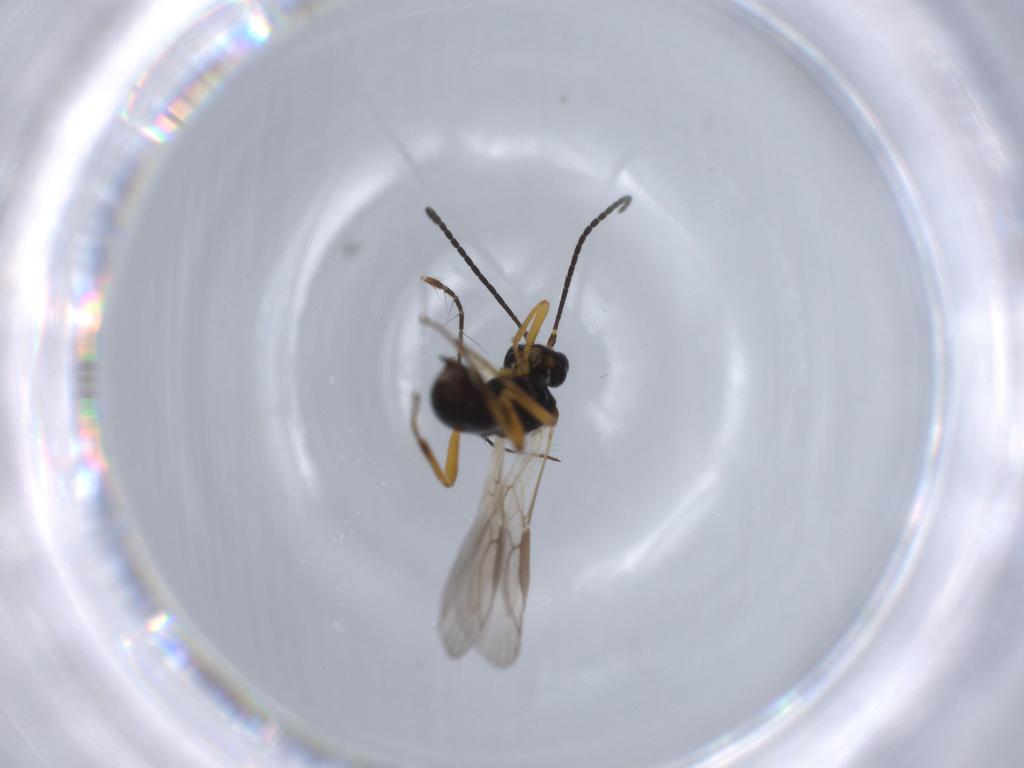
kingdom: Animalia
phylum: Arthropoda
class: Insecta
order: Hymenoptera
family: Braconidae
